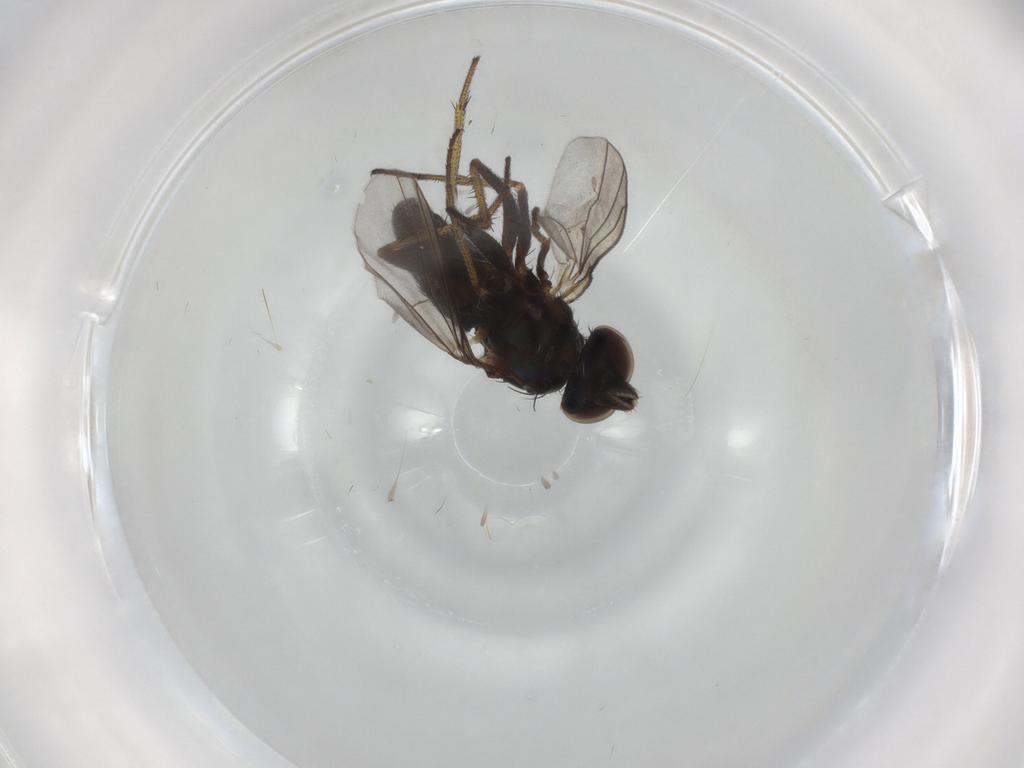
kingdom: Animalia
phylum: Arthropoda
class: Insecta
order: Diptera
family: Dolichopodidae
